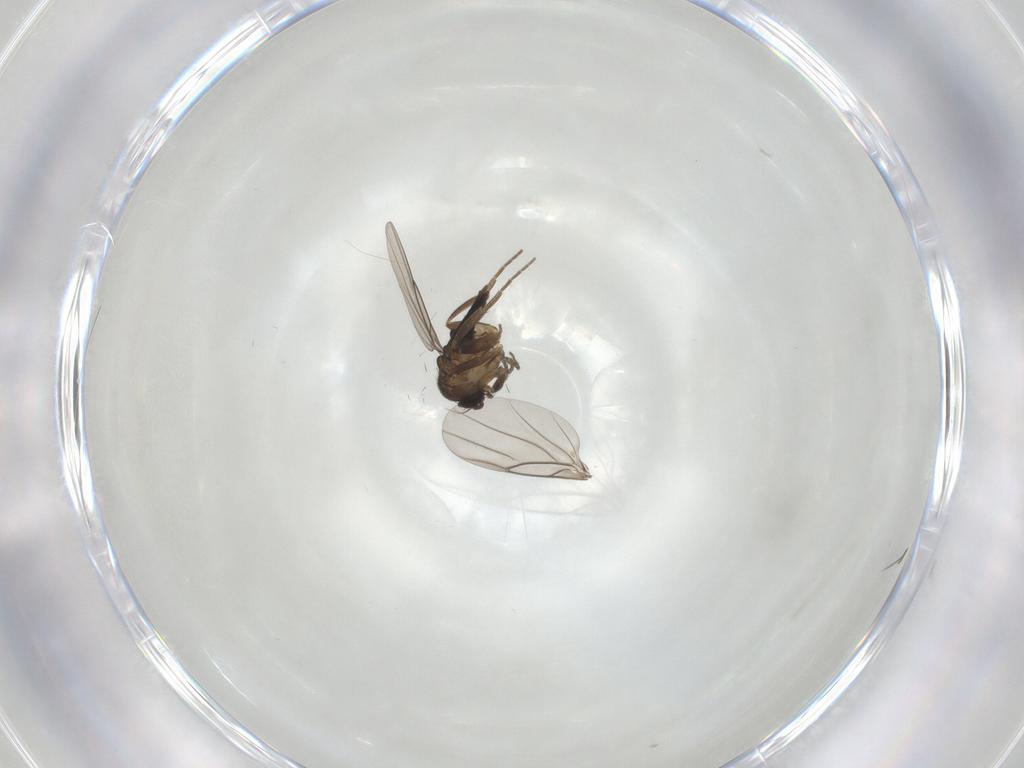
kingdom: Animalia
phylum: Arthropoda
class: Insecta
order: Diptera
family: Phoridae
